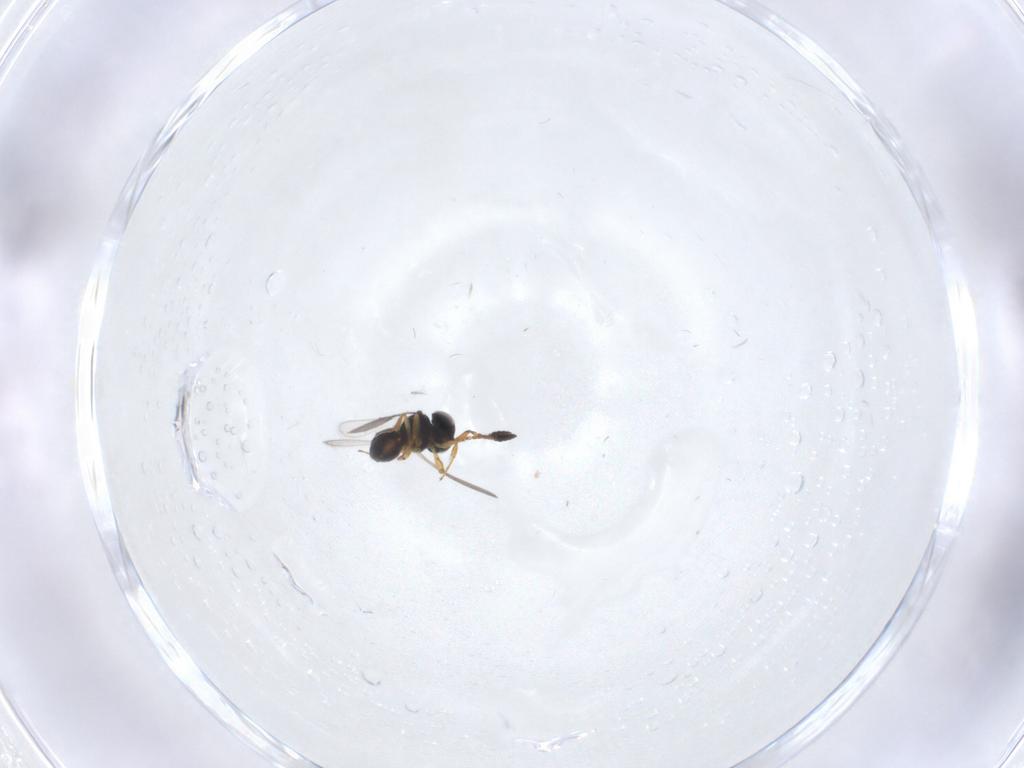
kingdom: Animalia
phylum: Arthropoda
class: Insecta
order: Hymenoptera
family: Scelionidae
